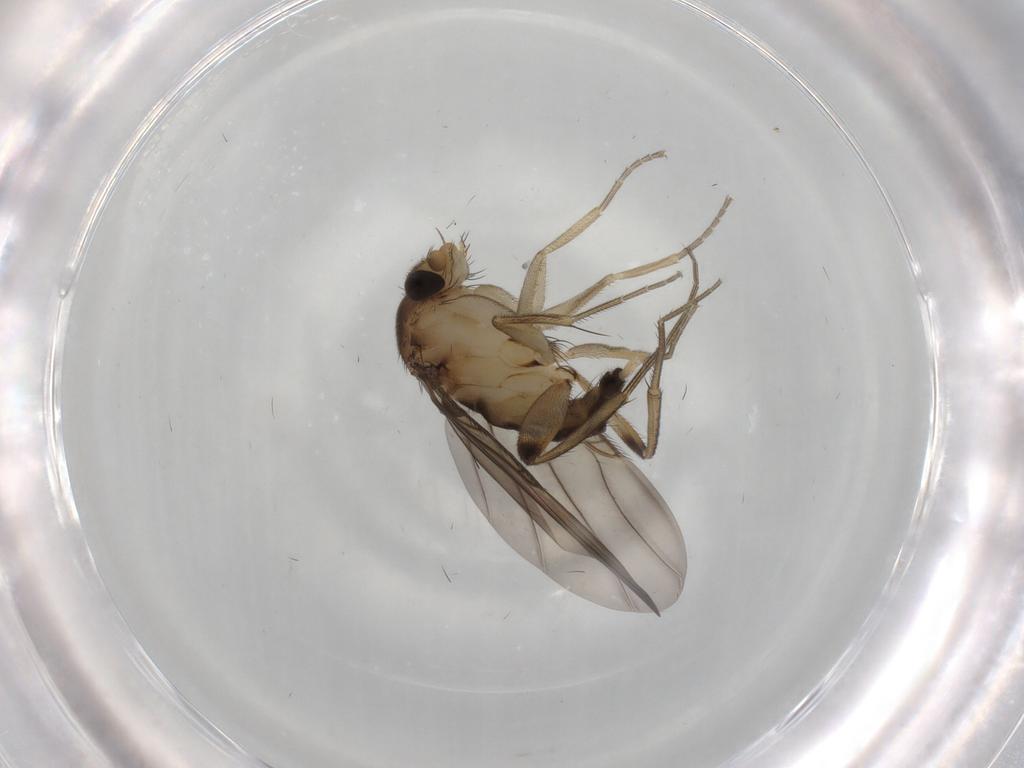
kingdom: Animalia
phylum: Arthropoda
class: Insecta
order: Diptera
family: Phoridae
